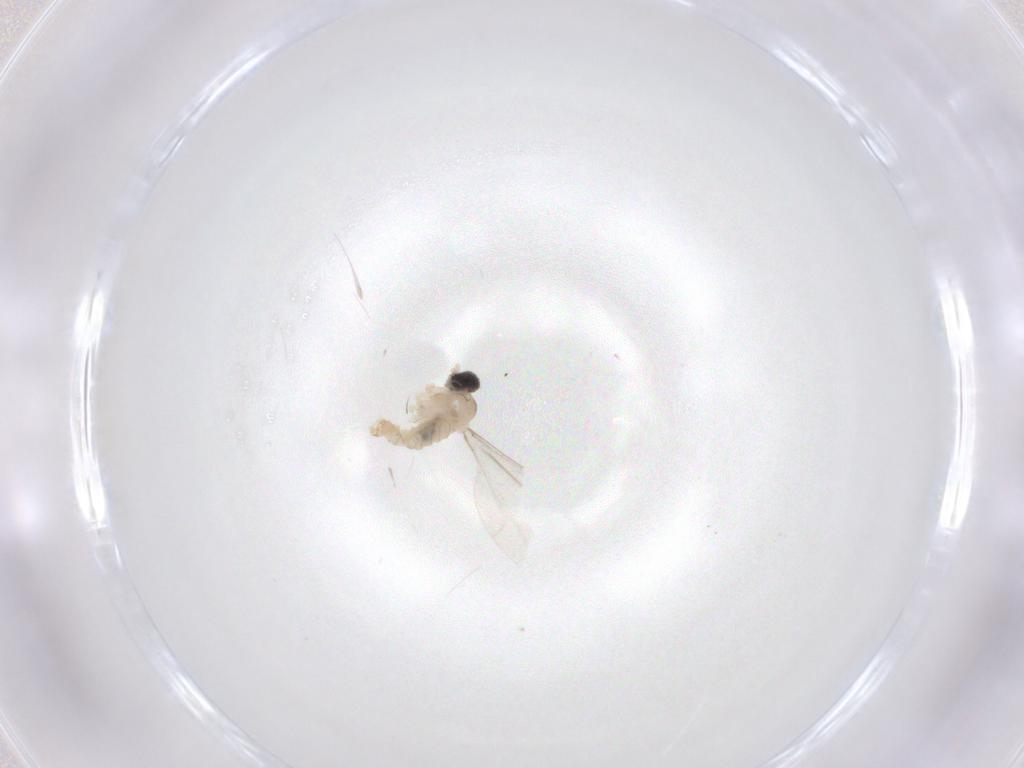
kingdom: Animalia
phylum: Arthropoda
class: Insecta
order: Diptera
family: Cecidomyiidae
